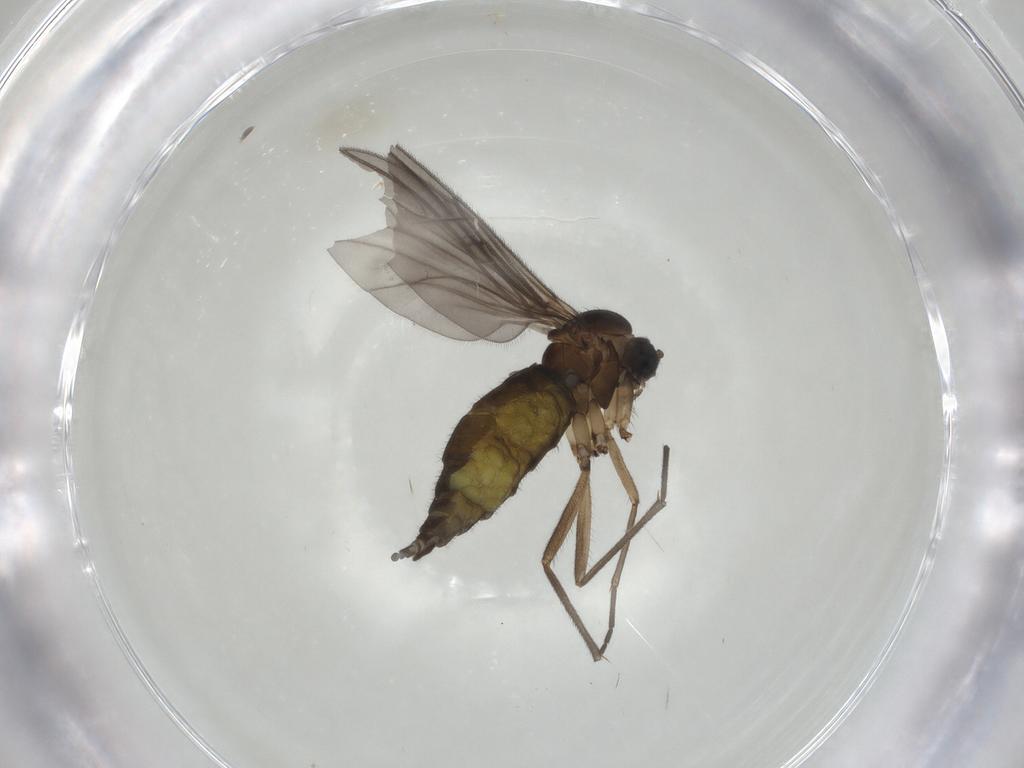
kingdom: Animalia
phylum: Arthropoda
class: Insecta
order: Diptera
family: Sciaridae
